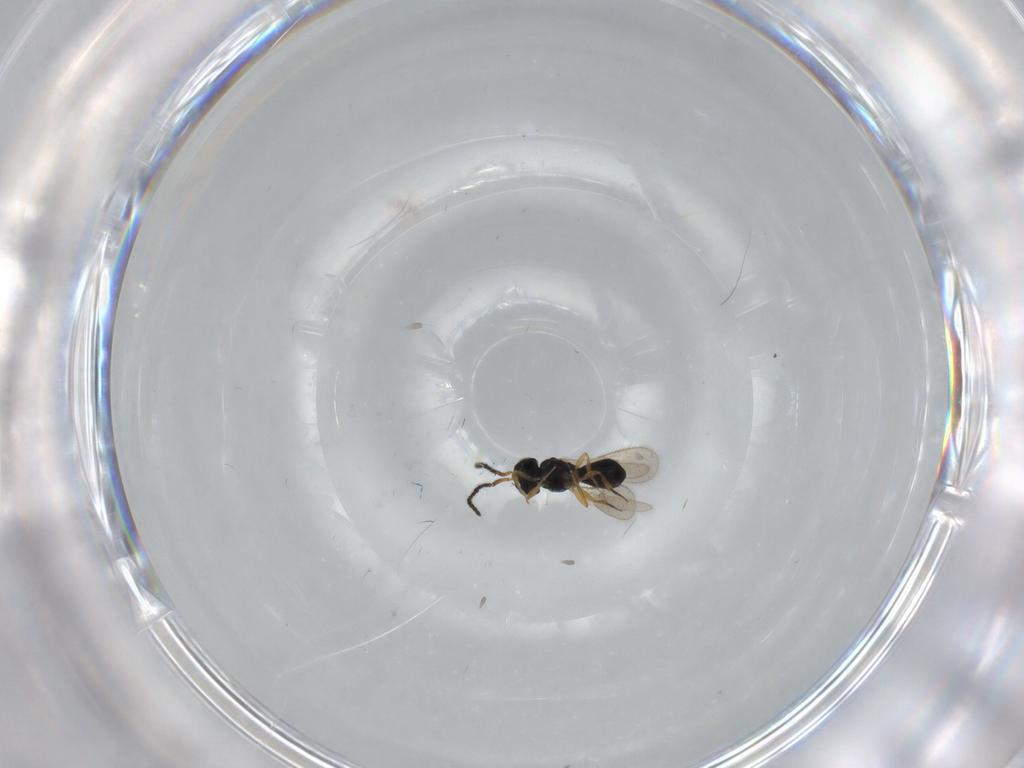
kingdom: Animalia
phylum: Arthropoda
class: Insecta
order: Hymenoptera
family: Scelionidae
